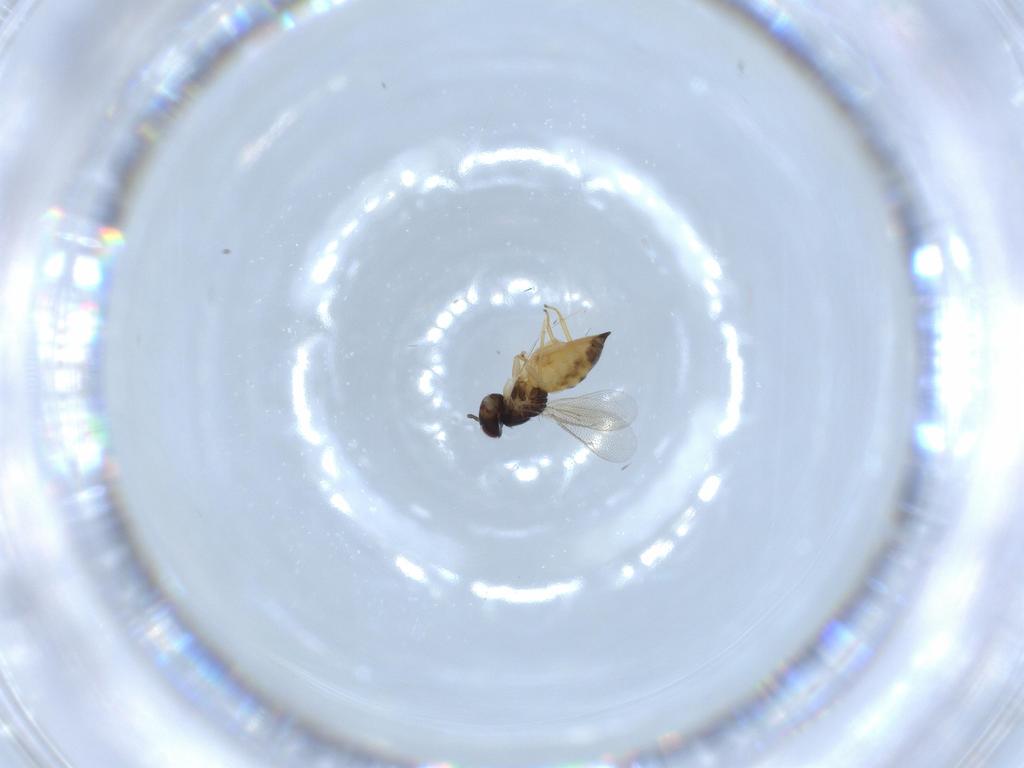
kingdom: Animalia
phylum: Arthropoda
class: Insecta
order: Hymenoptera
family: Eulophidae
